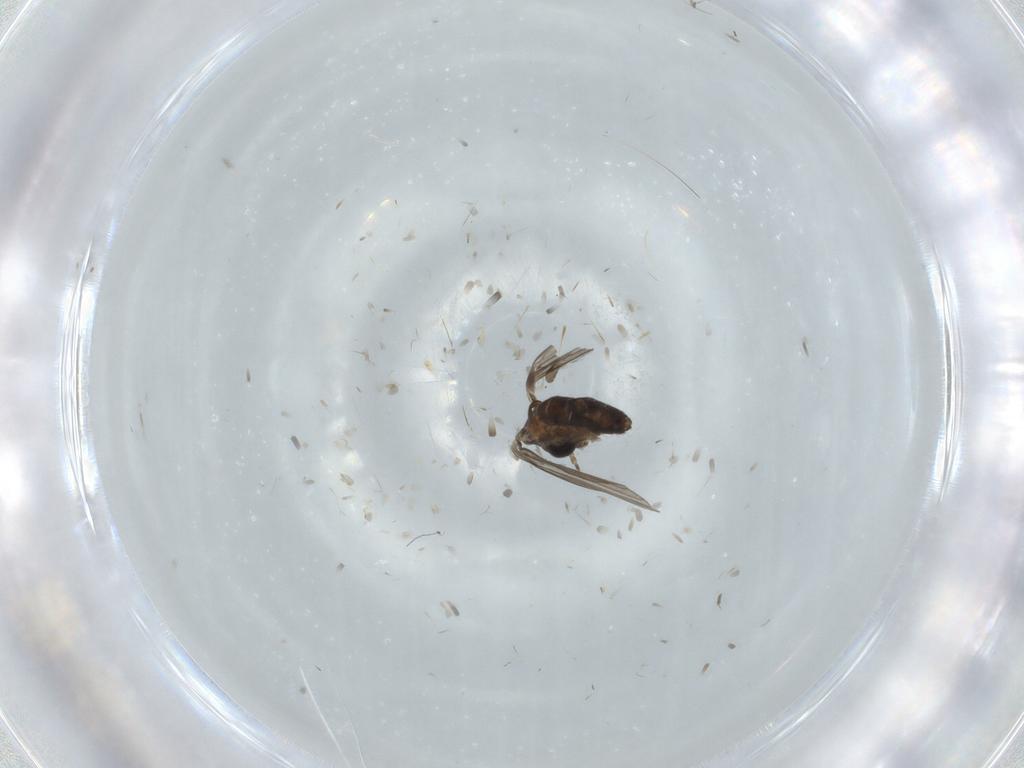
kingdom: Animalia
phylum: Arthropoda
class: Insecta
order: Diptera
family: Psychodidae
